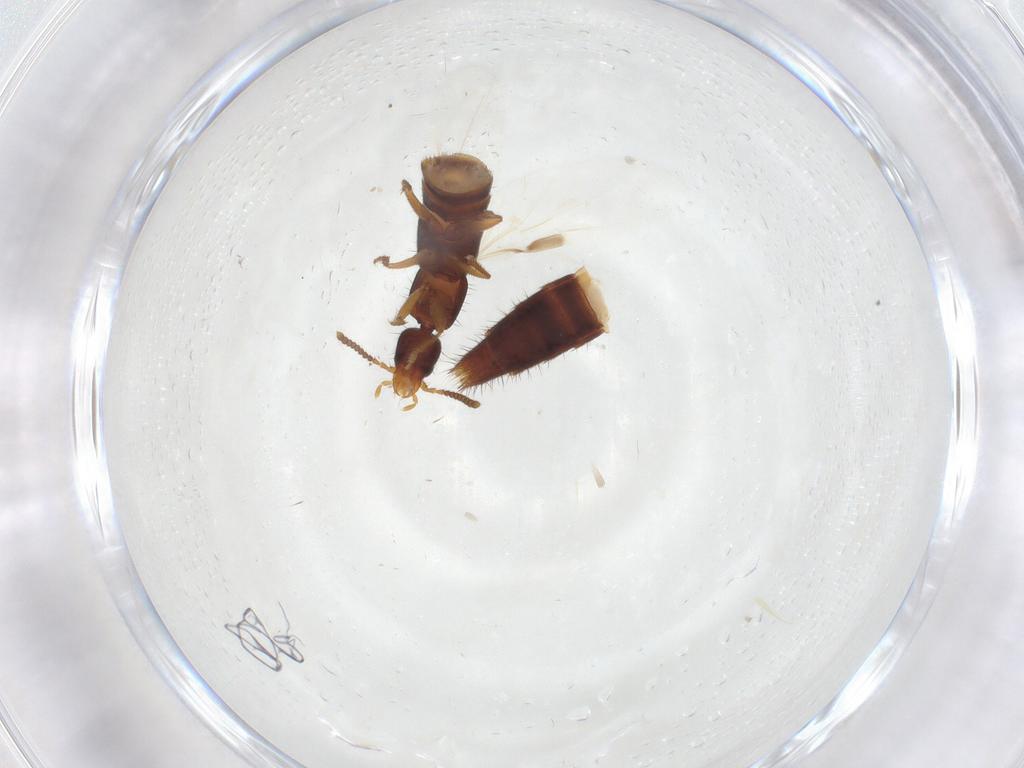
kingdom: Animalia
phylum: Arthropoda
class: Insecta
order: Coleoptera
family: Staphylinidae
